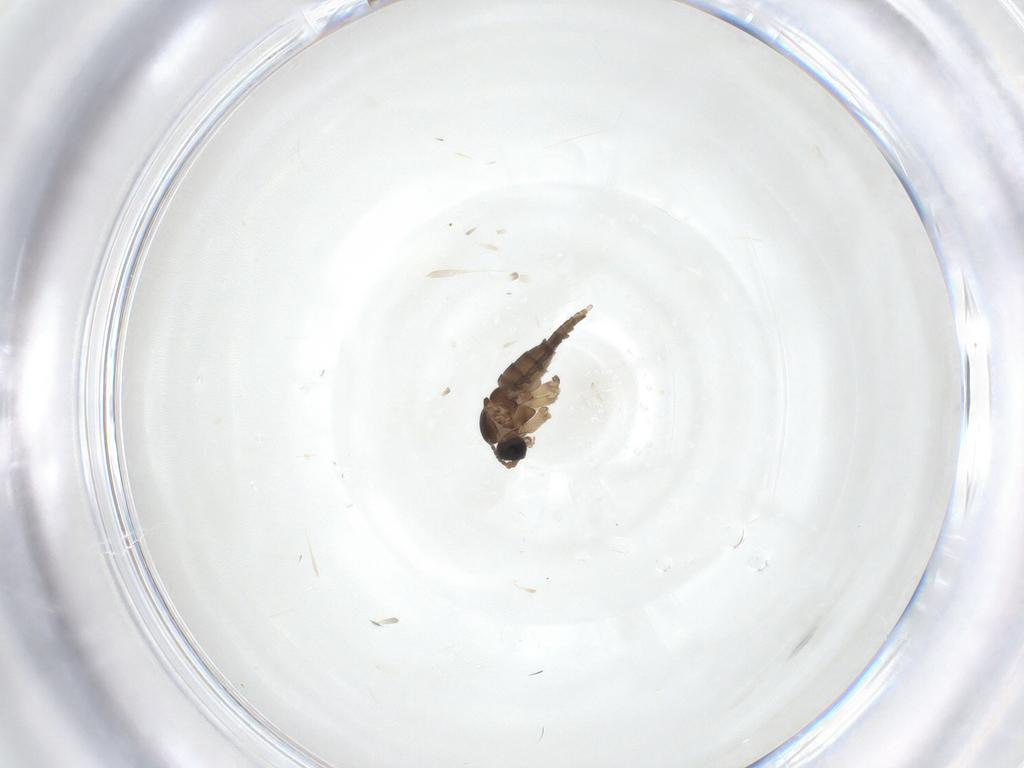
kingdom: Animalia
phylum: Arthropoda
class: Insecta
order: Diptera
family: Sciaridae
